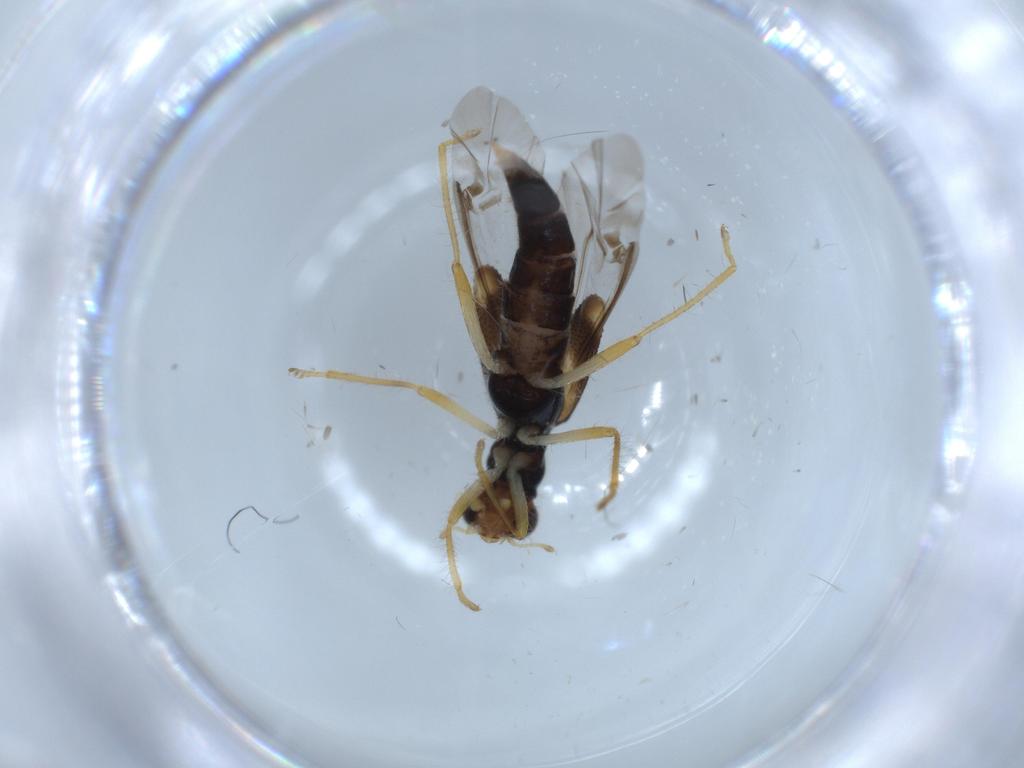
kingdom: Animalia
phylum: Arthropoda
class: Insecta
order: Coleoptera
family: Cleridae
